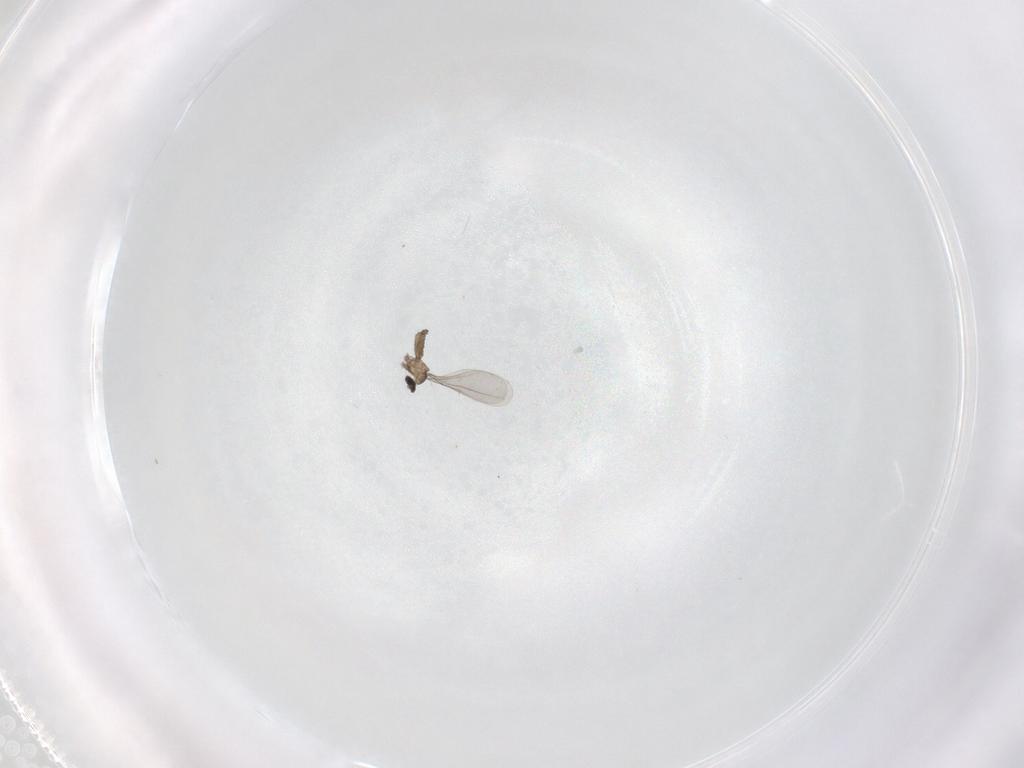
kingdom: Animalia
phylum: Arthropoda
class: Insecta
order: Diptera
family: Cecidomyiidae
